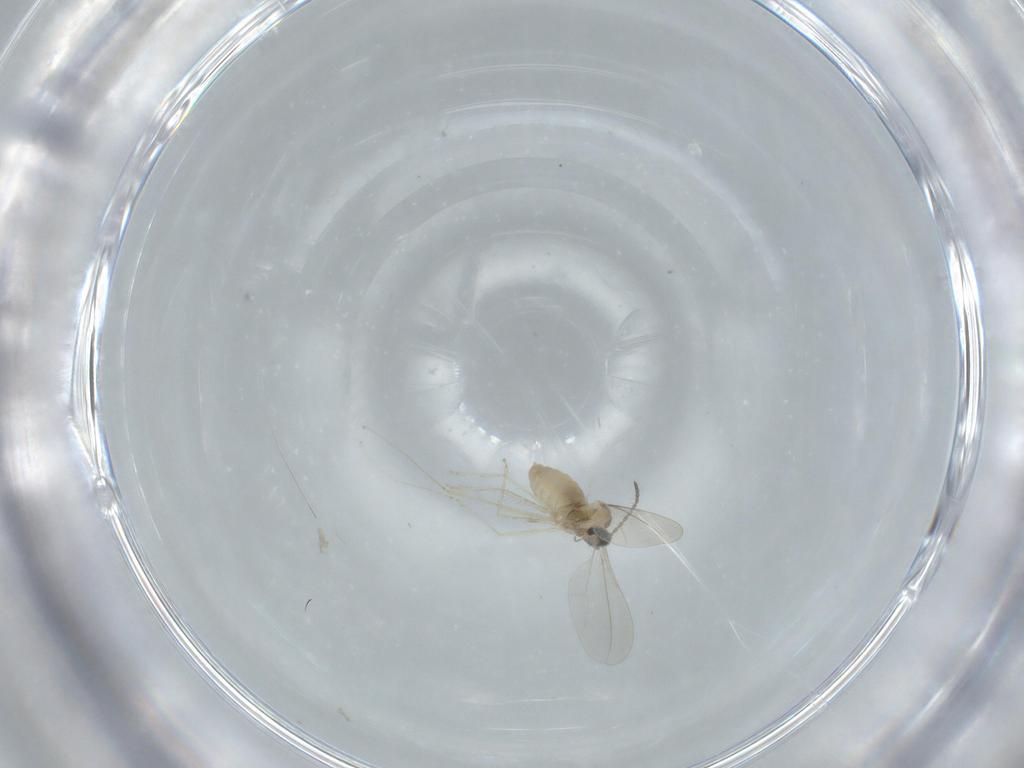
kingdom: Animalia
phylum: Arthropoda
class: Insecta
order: Diptera
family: Cecidomyiidae
